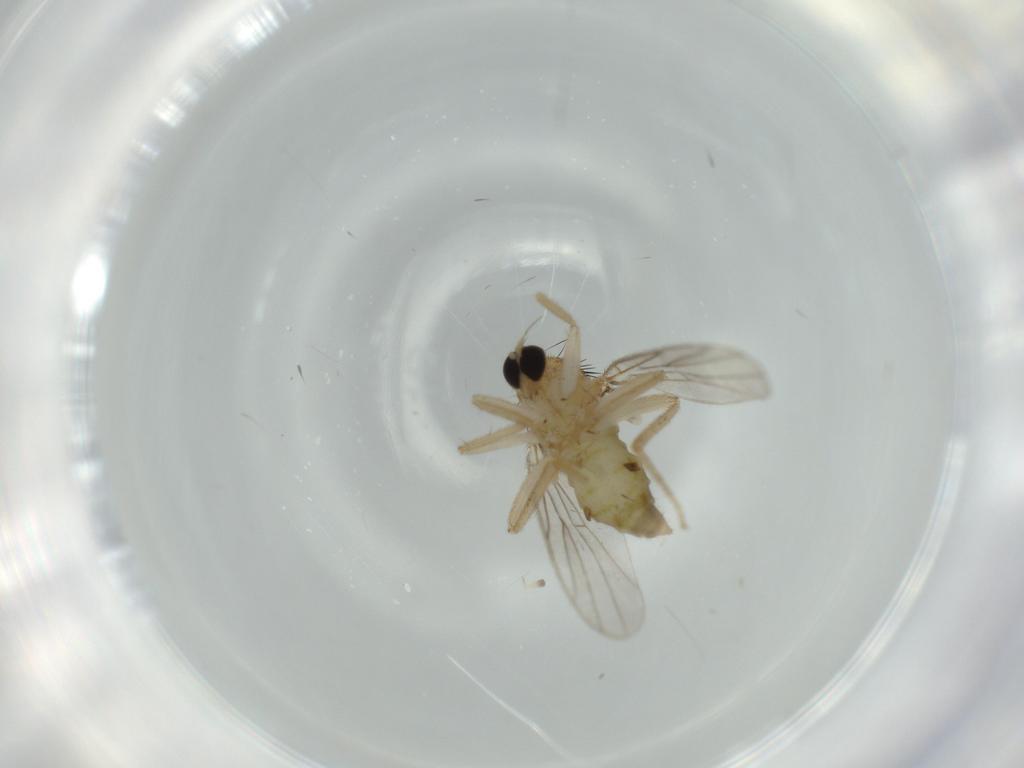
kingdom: Animalia
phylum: Arthropoda
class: Insecta
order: Diptera
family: Hybotidae
